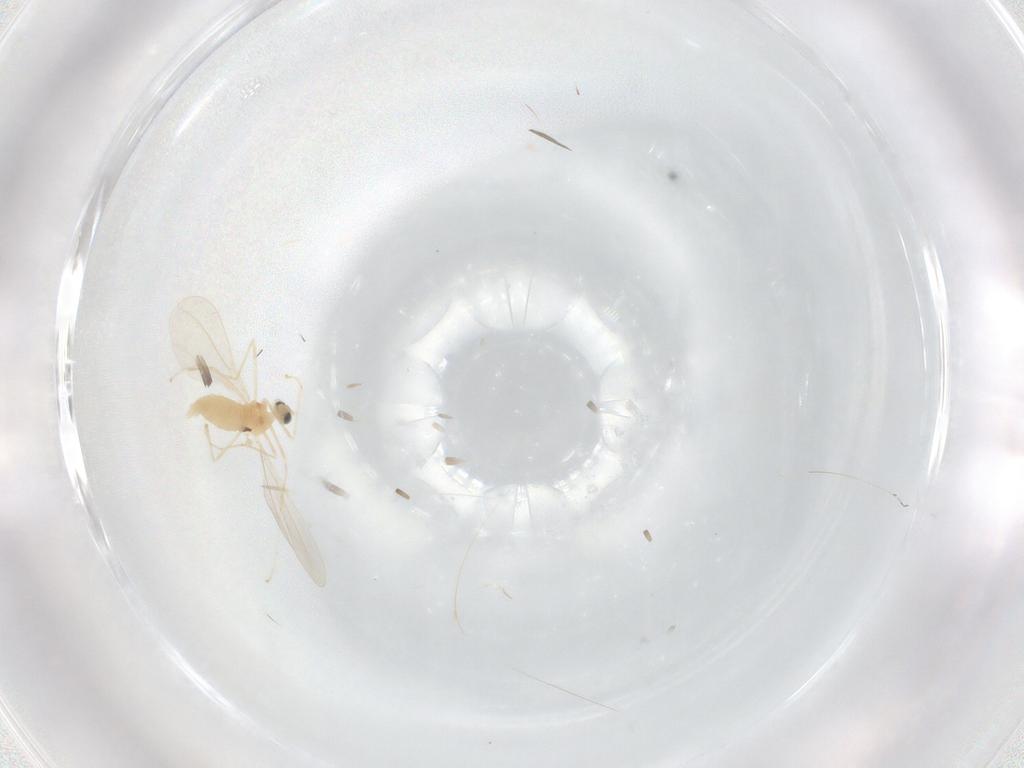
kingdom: Animalia
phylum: Arthropoda
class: Insecta
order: Diptera
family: Cecidomyiidae
